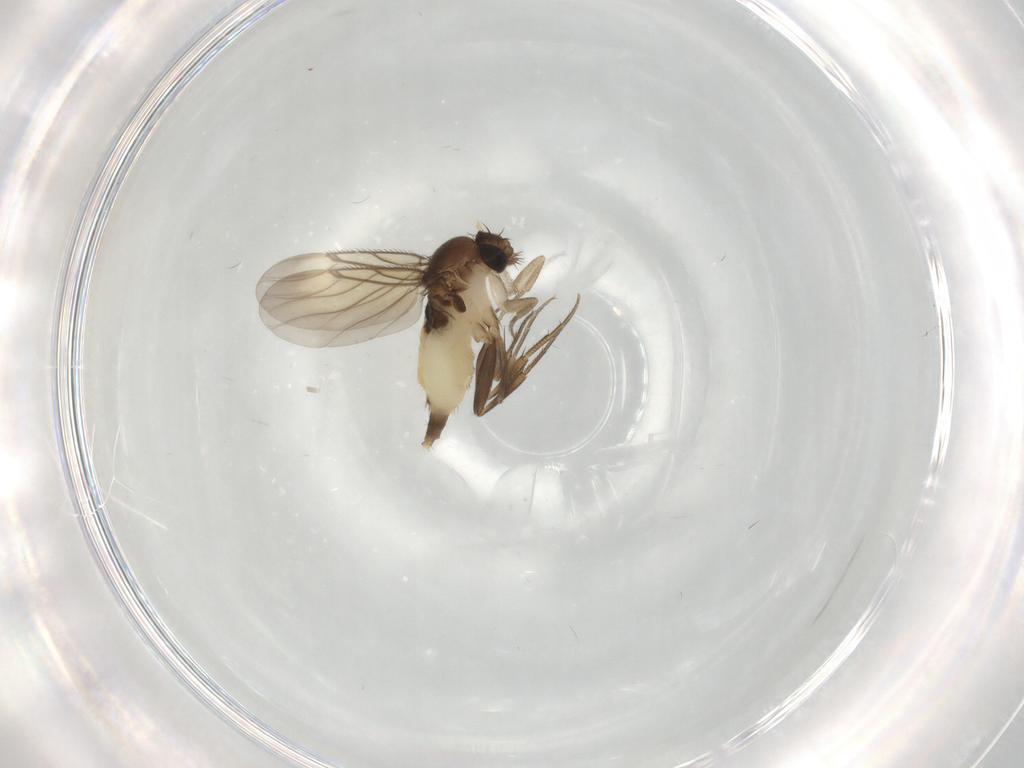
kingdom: Animalia
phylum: Arthropoda
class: Insecta
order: Diptera
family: Phoridae
